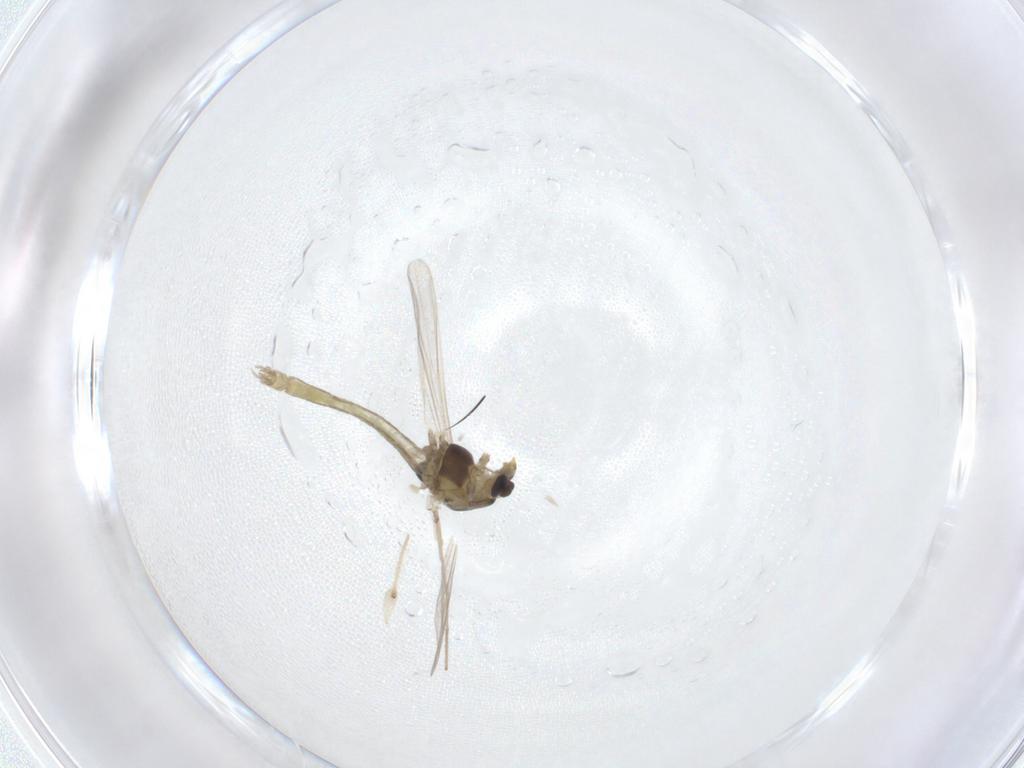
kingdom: Animalia
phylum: Arthropoda
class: Insecta
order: Diptera
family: Chironomidae
